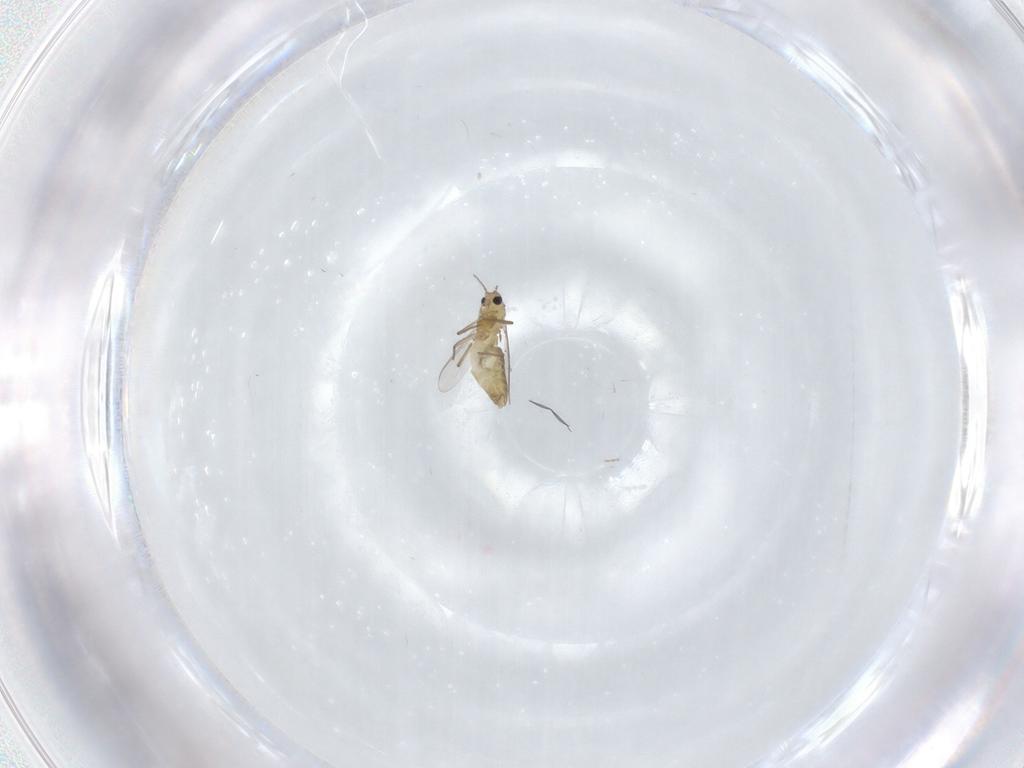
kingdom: Animalia
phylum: Arthropoda
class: Insecta
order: Diptera
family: Chironomidae
